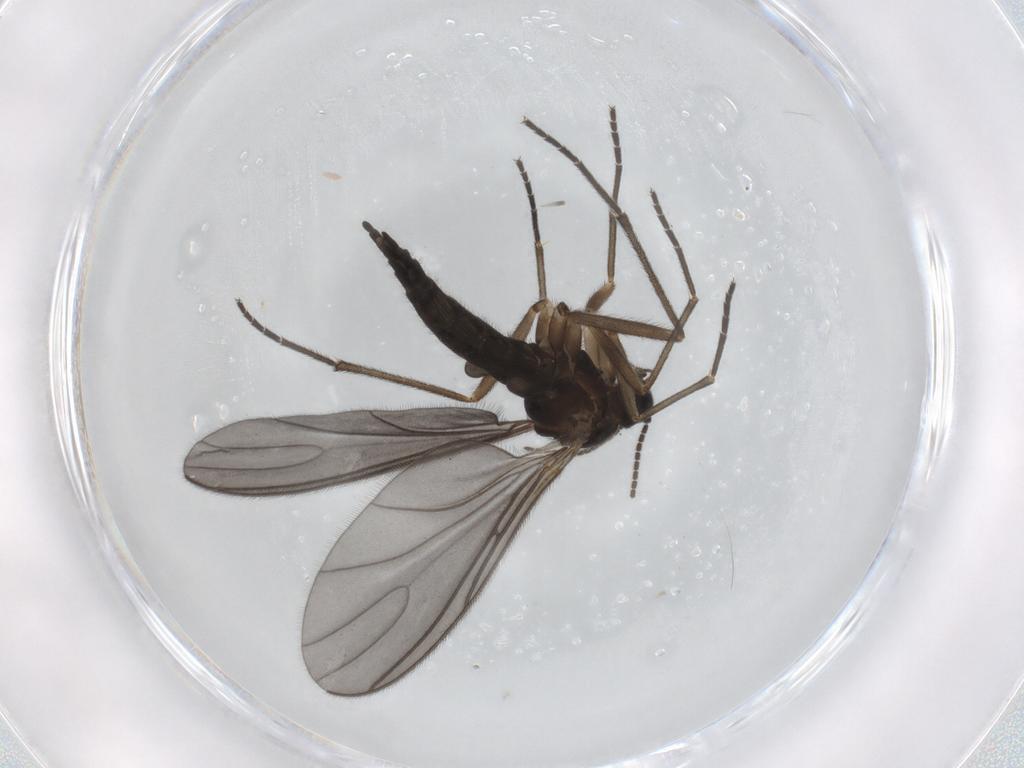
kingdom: Animalia
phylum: Arthropoda
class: Insecta
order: Diptera
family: Sciaridae
